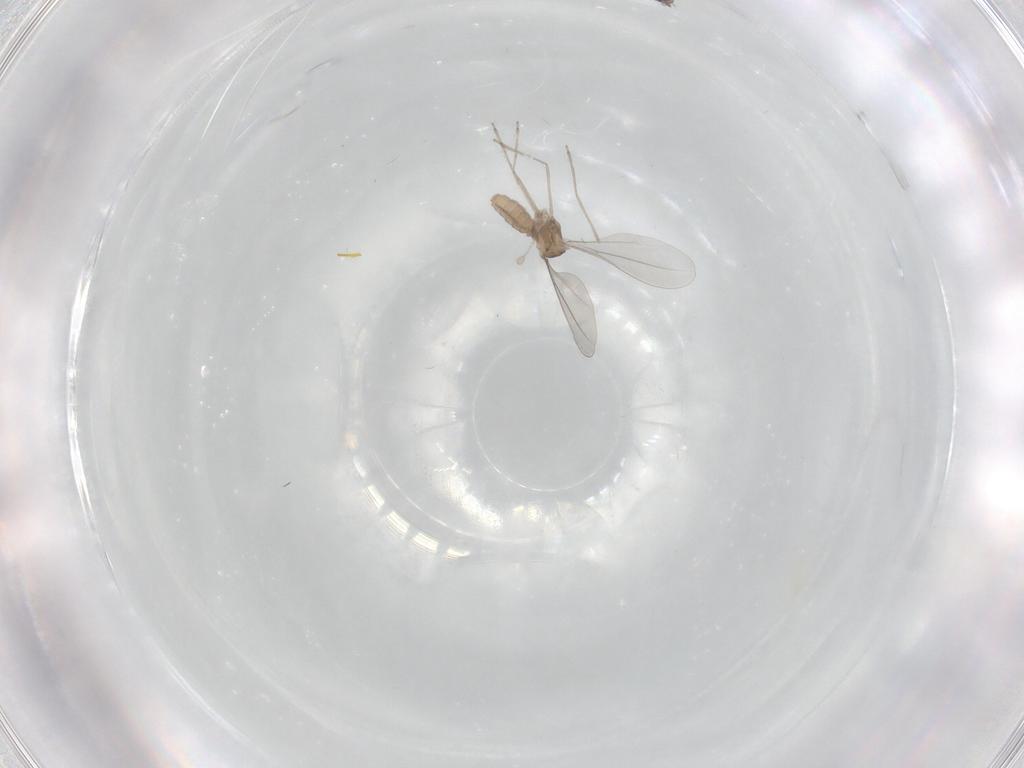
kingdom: Animalia
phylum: Arthropoda
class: Insecta
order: Diptera
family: Cecidomyiidae
